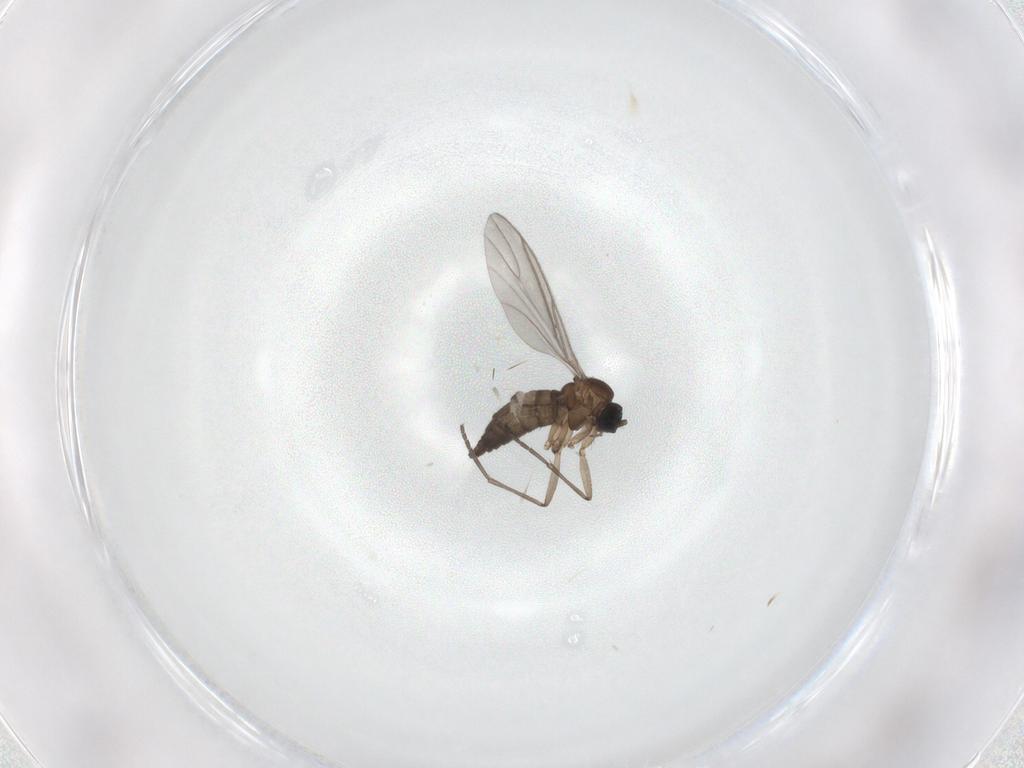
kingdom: Animalia
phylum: Arthropoda
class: Insecta
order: Diptera
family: Sciaridae
